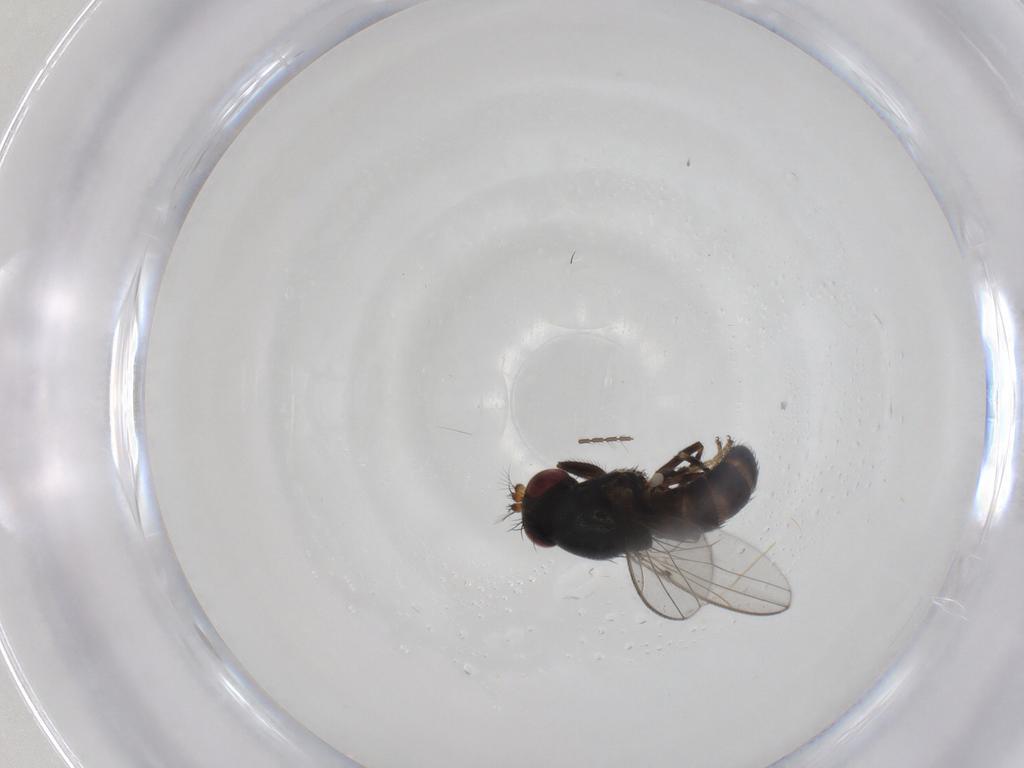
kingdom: Animalia
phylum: Arthropoda
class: Insecta
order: Diptera
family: Ephydridae
